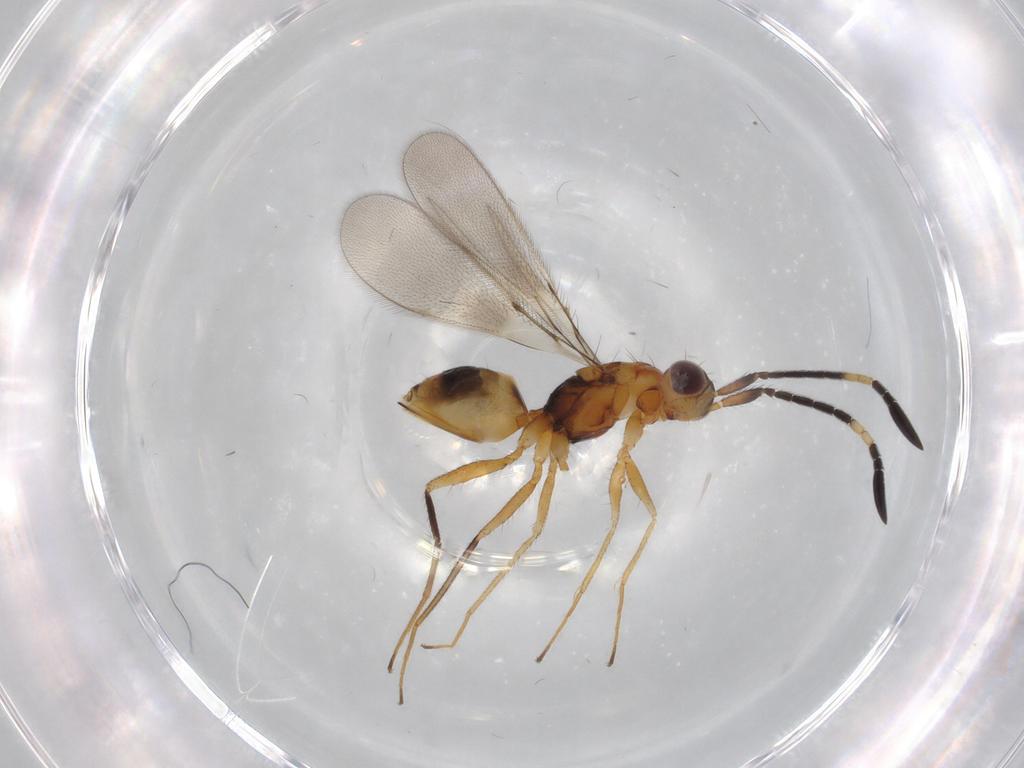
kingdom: Animalia
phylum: Arthropoda
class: Insecta
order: Hymenoptera
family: Mymaridae
